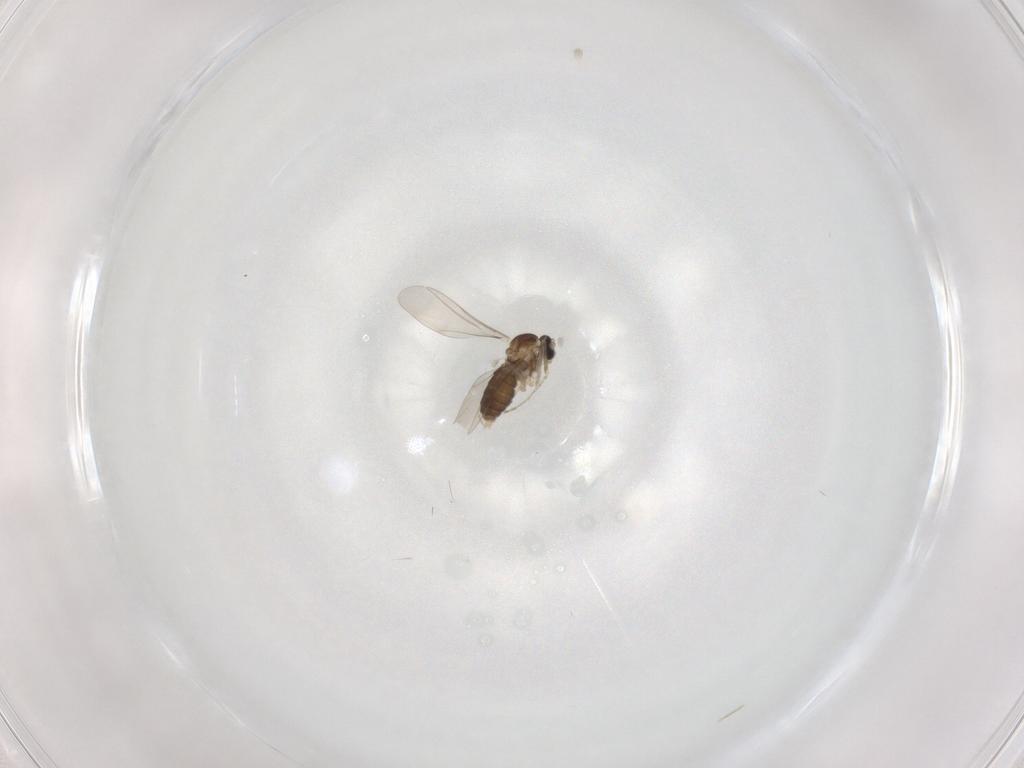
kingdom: Animalia
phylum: Arthropoda
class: Insecta
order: Diptera
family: Cecidomyiidae
